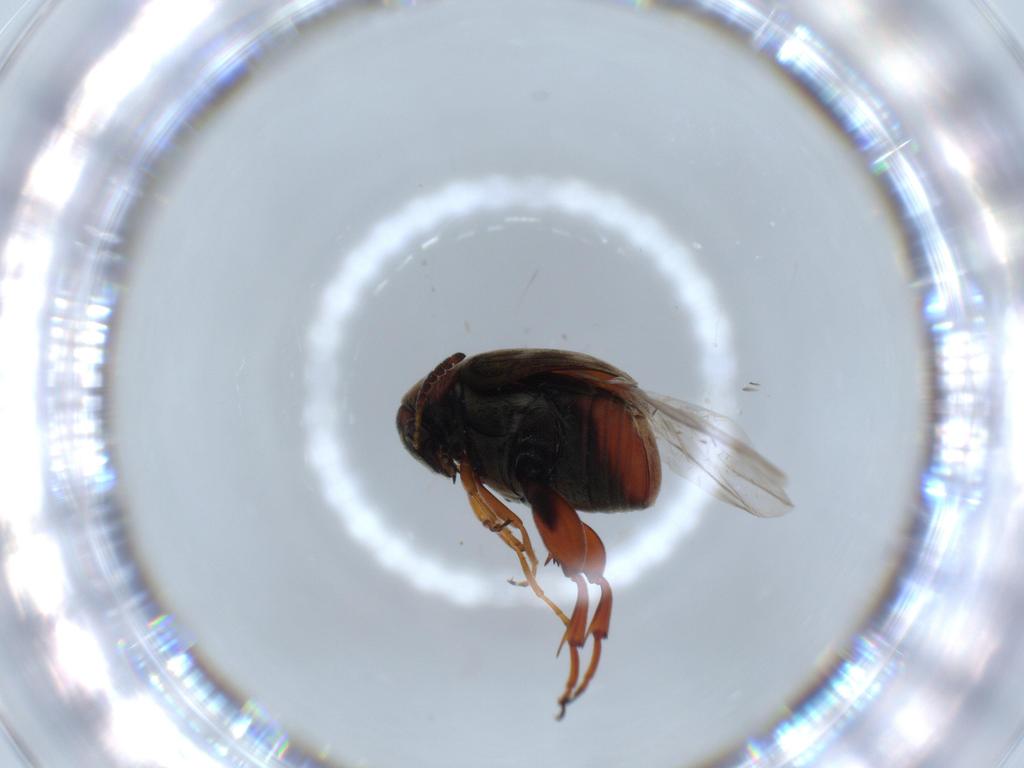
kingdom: Animalia
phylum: Arthropoda
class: Insecta
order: Coleoptera
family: Chrysomelidae
